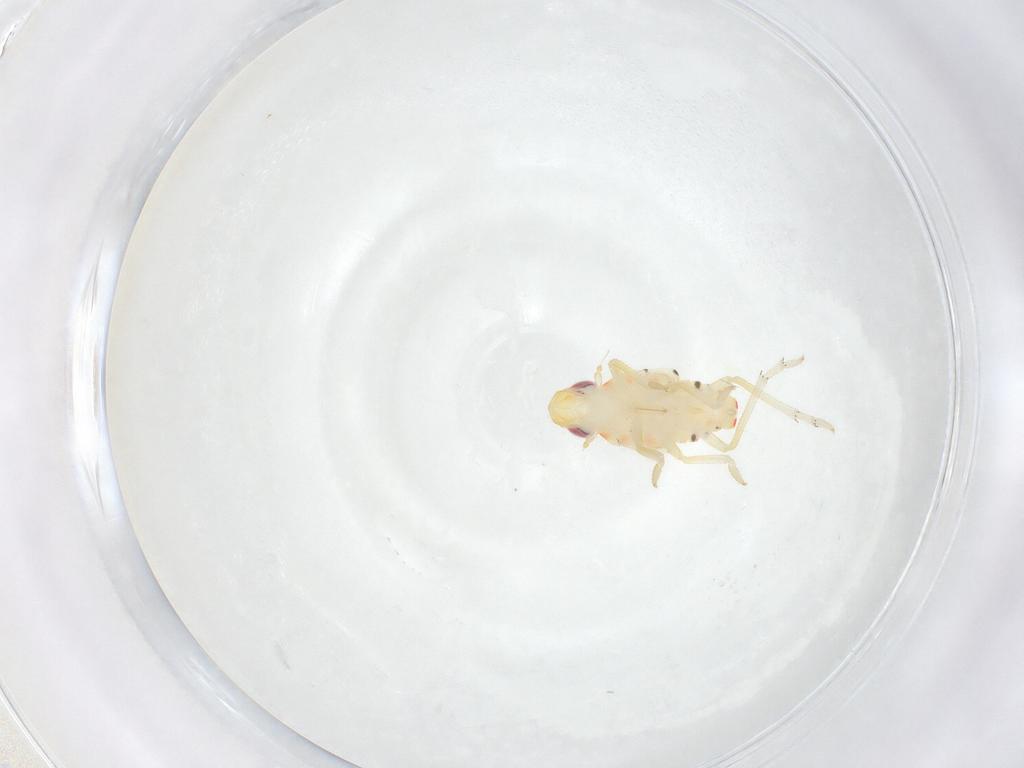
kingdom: Animalia
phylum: Arthropoda
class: Insecta
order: Hemiptera
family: Tropiduchidae
